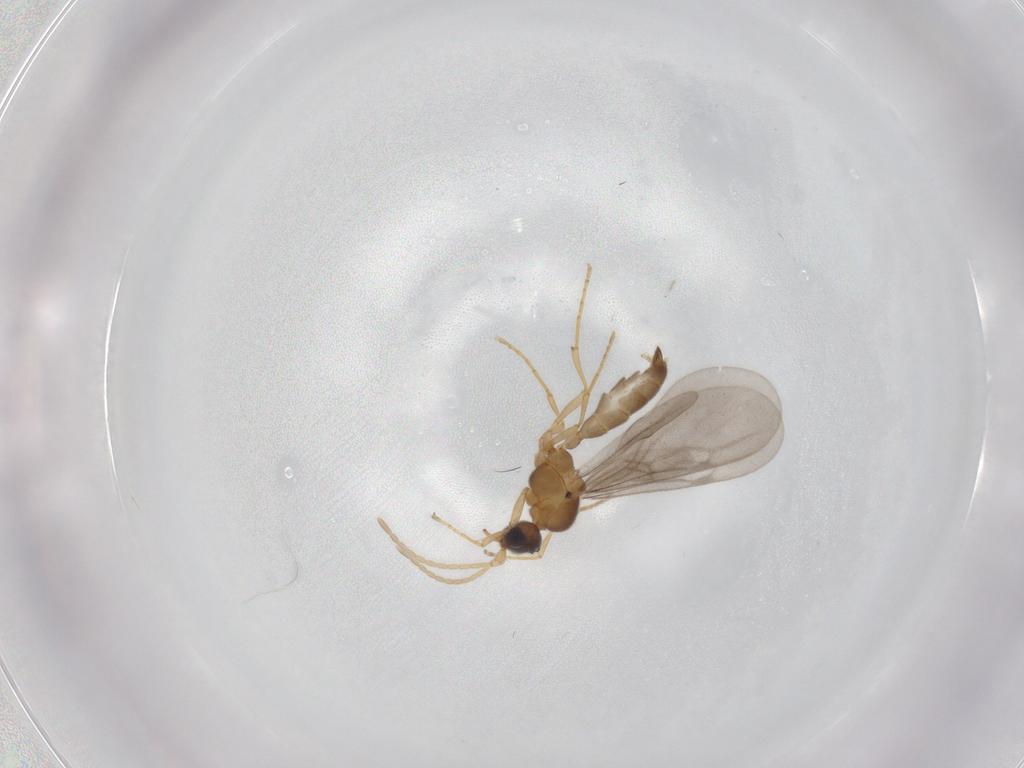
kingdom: Animalia
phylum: Arthropoda
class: Insecta
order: Hymenoptera
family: Formicidae
